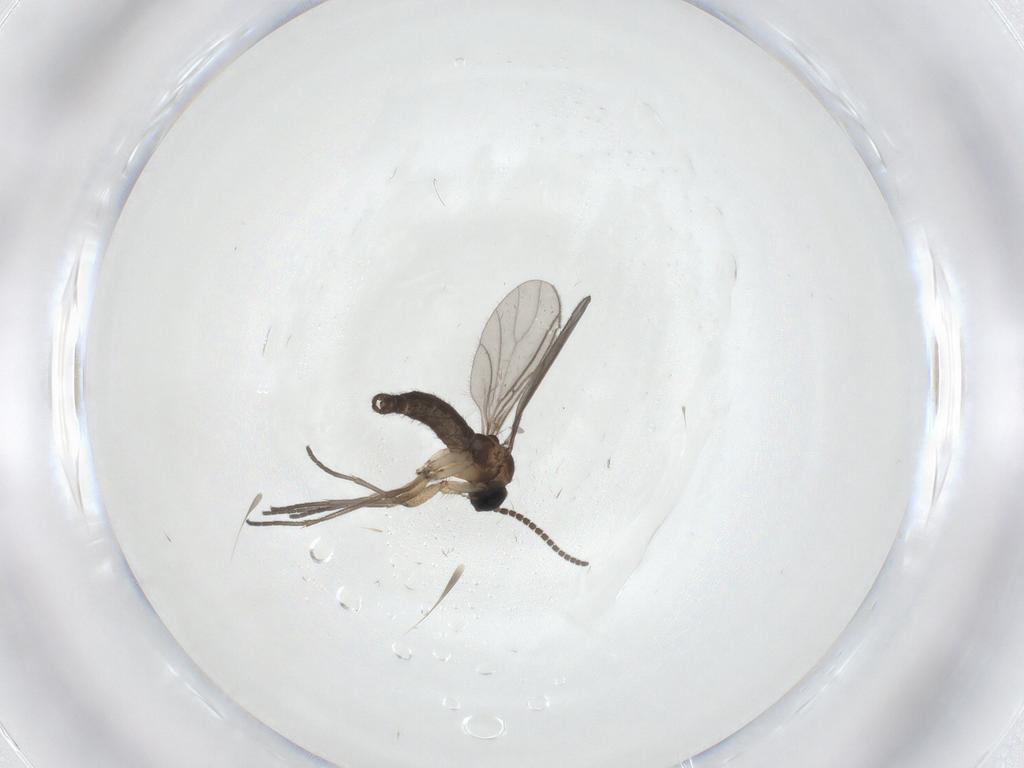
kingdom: Animalia
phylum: Arthropoda
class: Insecta
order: Diptera
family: Sciaridae
